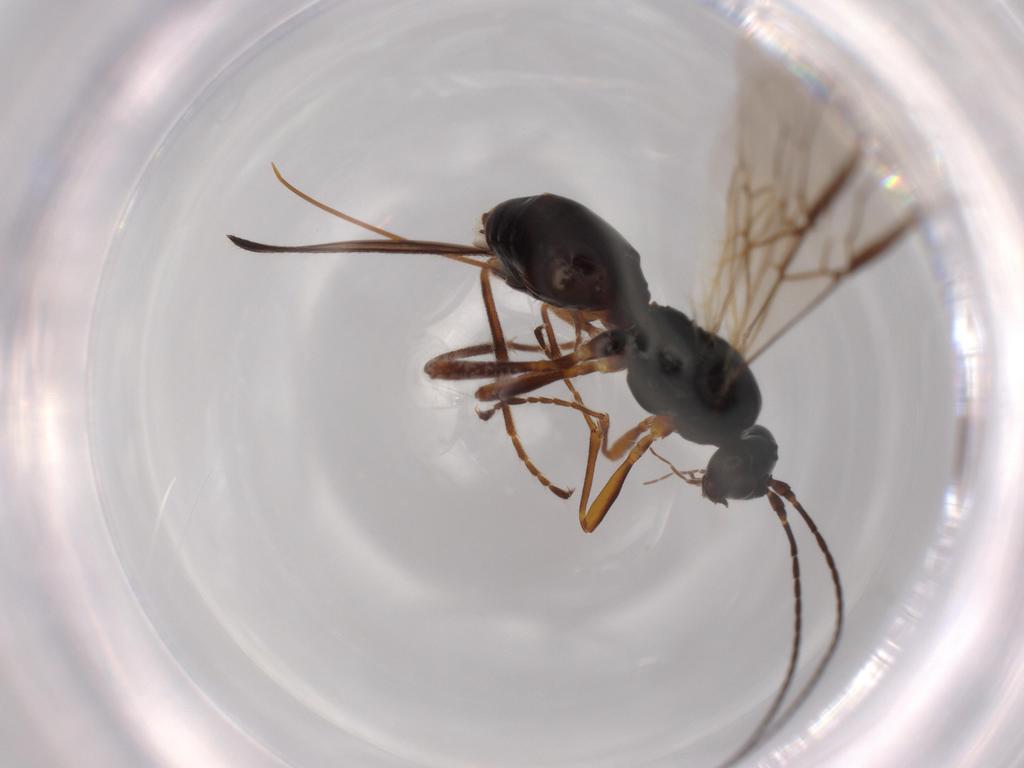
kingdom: Animalia
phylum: Arthropoda
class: Insecta
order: Hymenoptera
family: Braconidae
